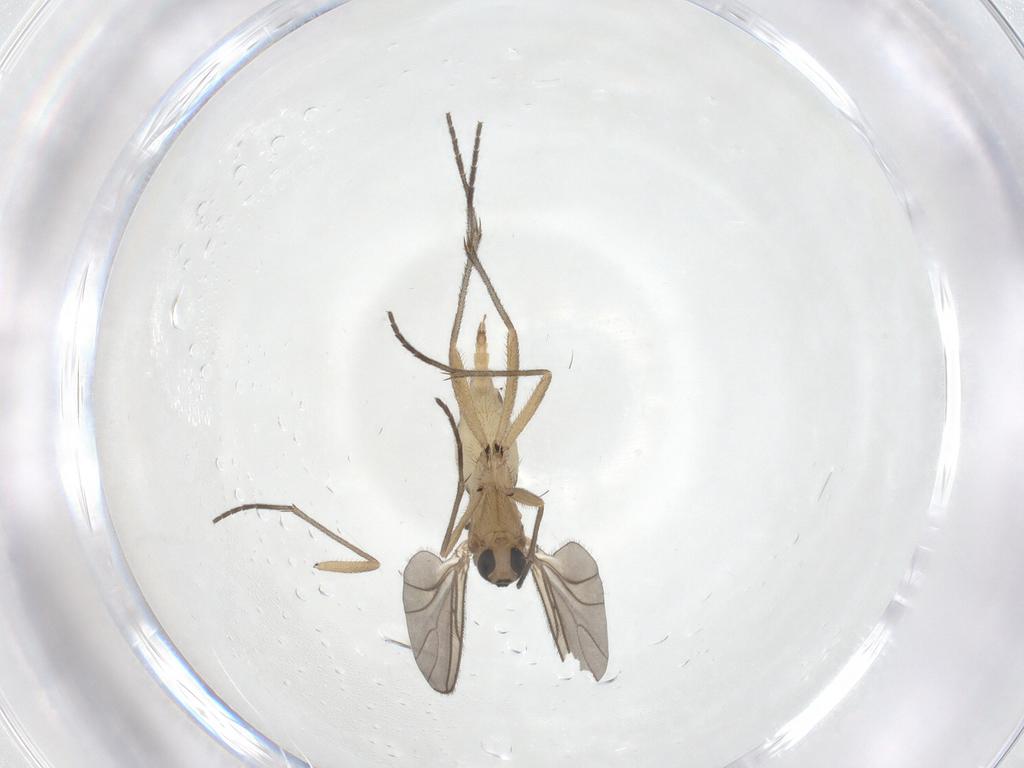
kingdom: Animalia
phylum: Arthropoda
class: Insecta
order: Diptera
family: Sciaridae
